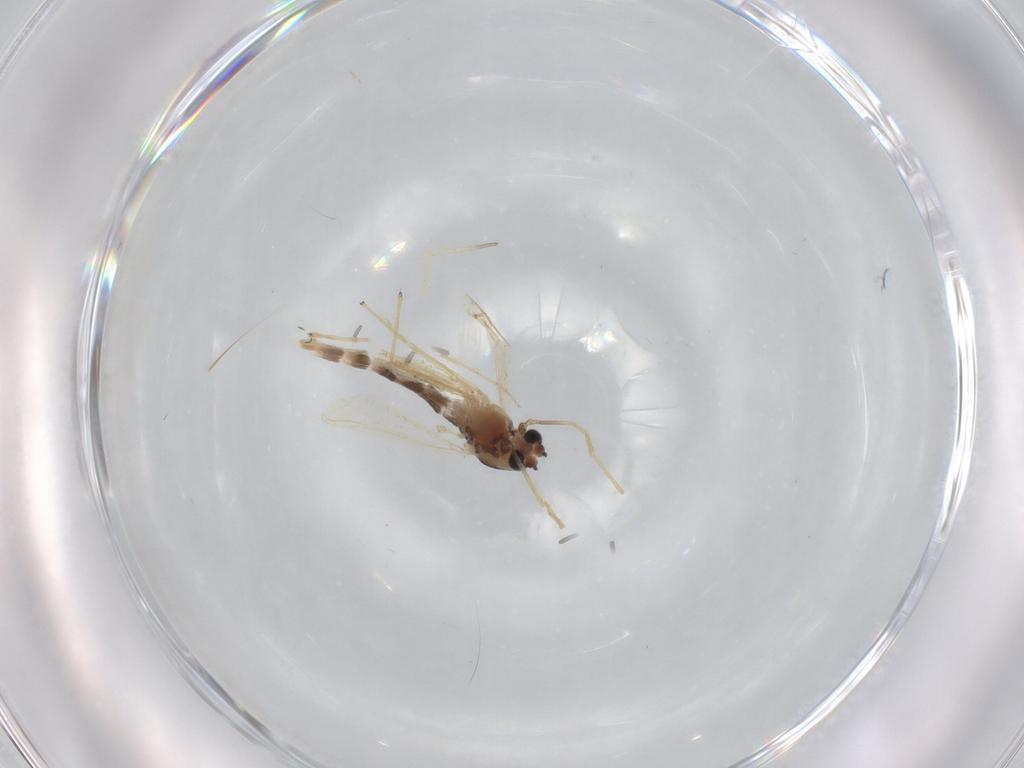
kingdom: Animalia
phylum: Arthropoda
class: Insecta
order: Diptera
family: Chironomidae
